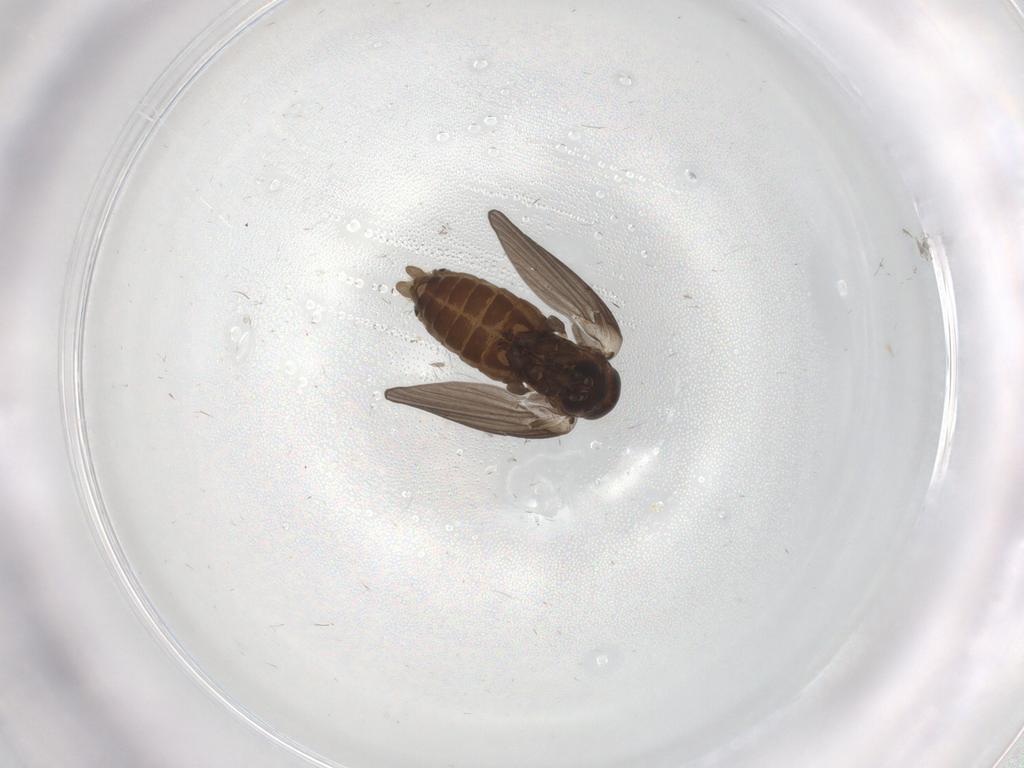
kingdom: Animalia
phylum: Arthropoda
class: Insecta
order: Diptera
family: Psychodidae
